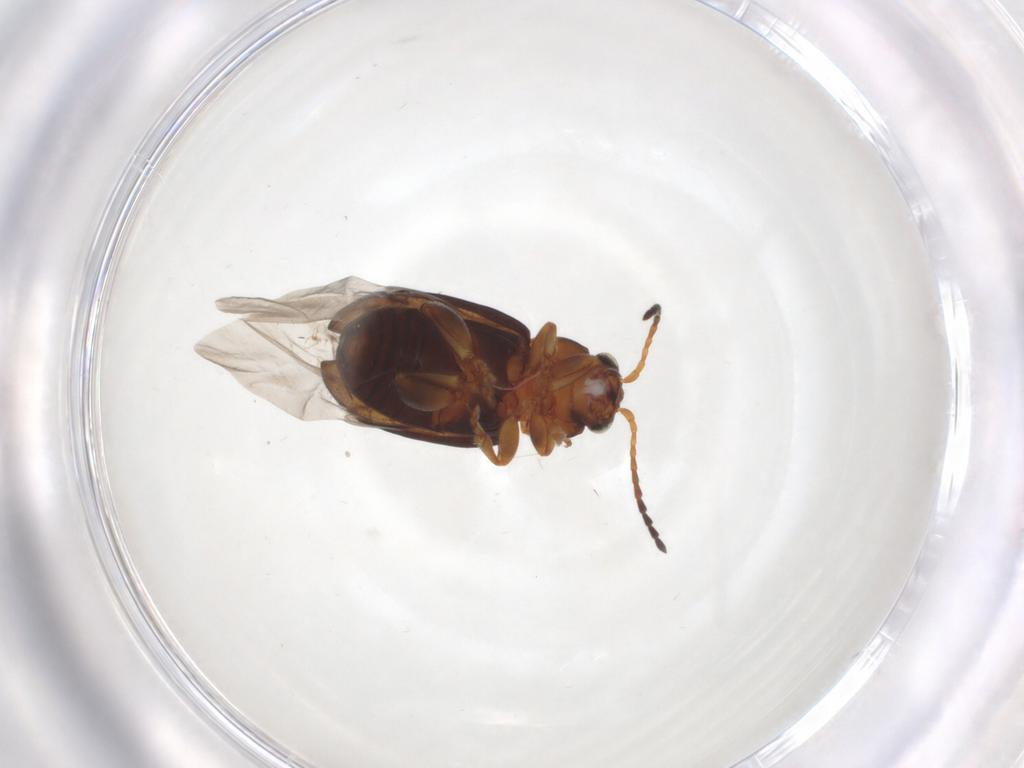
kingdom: Animalia
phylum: Arthropoda
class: Insecta
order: Coleoptera
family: Chrysomelidae
